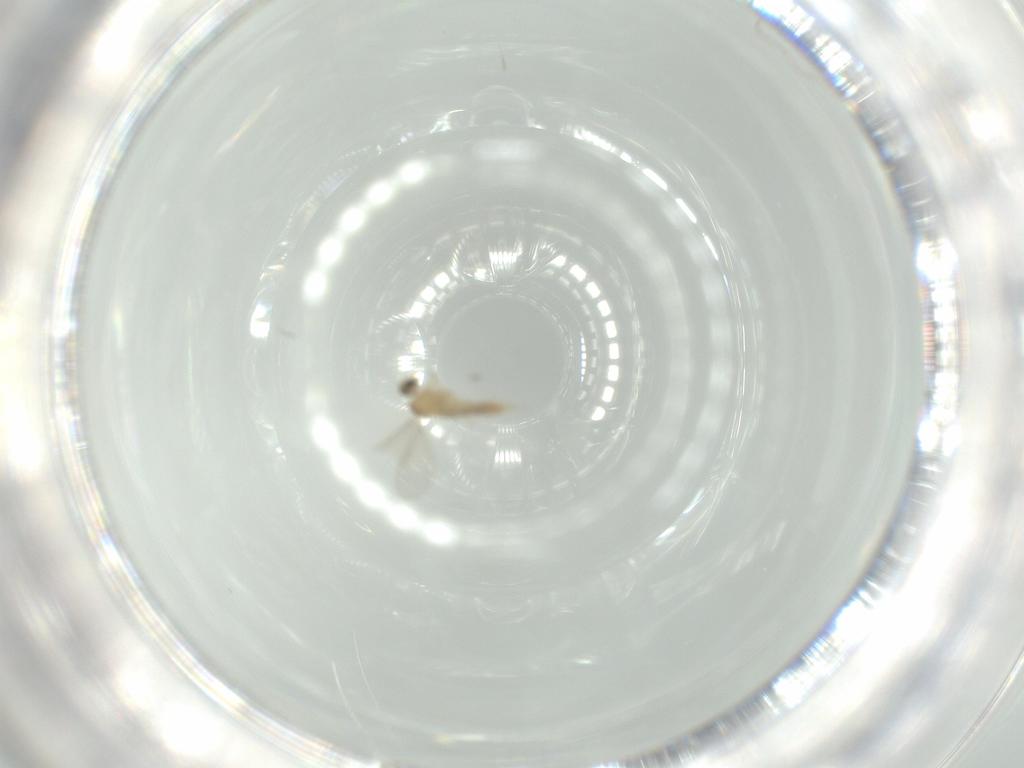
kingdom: Animalia
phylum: Arthropoda
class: Insecta
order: Diptera
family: Cecidomyiidae
